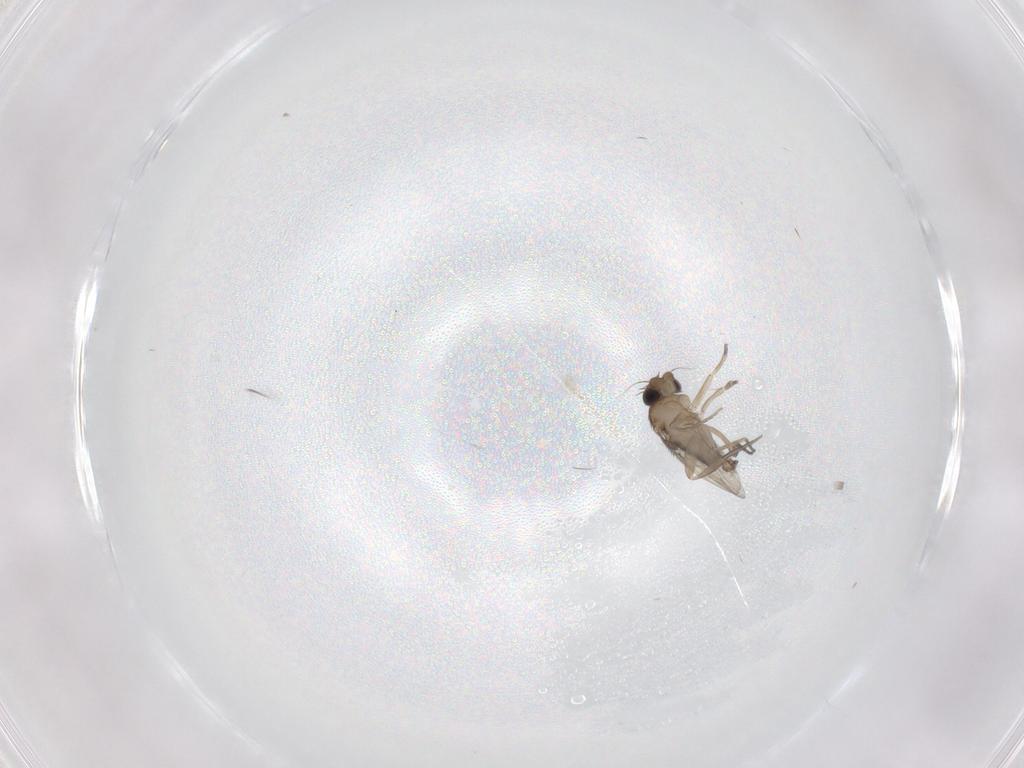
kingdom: Animalia
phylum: Arthropoda
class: Insecta
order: Diptera
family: Phoridae
